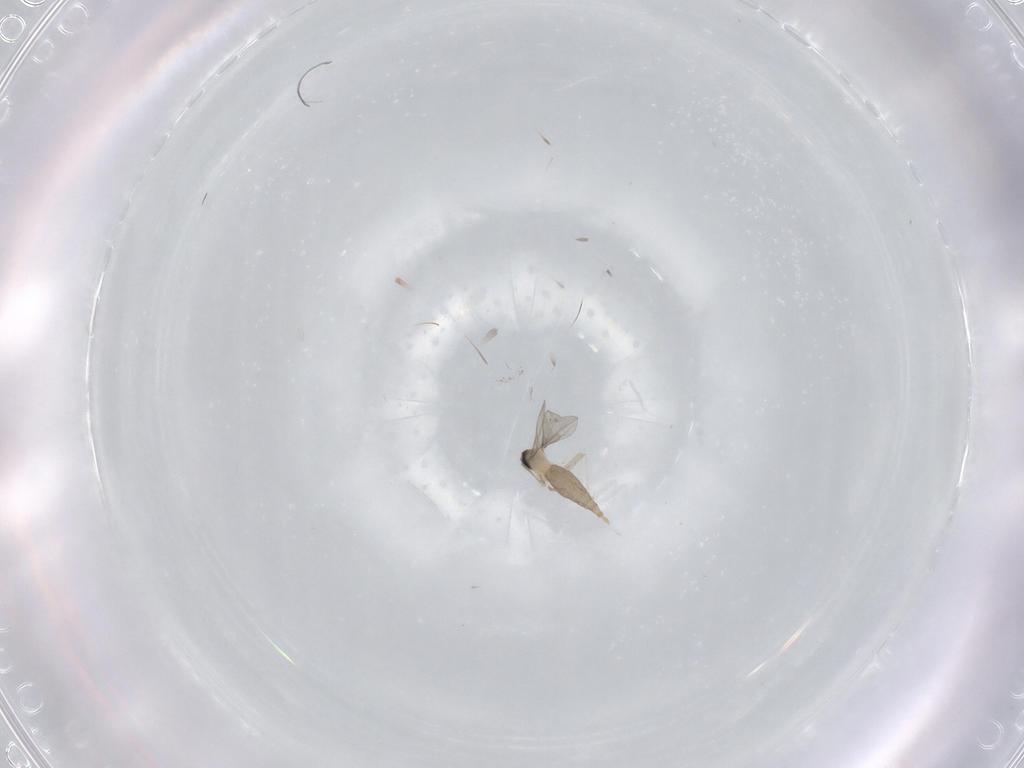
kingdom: Animalia
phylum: Arthropoda
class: Insecta
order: Diptera
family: Cecidomyiidae
